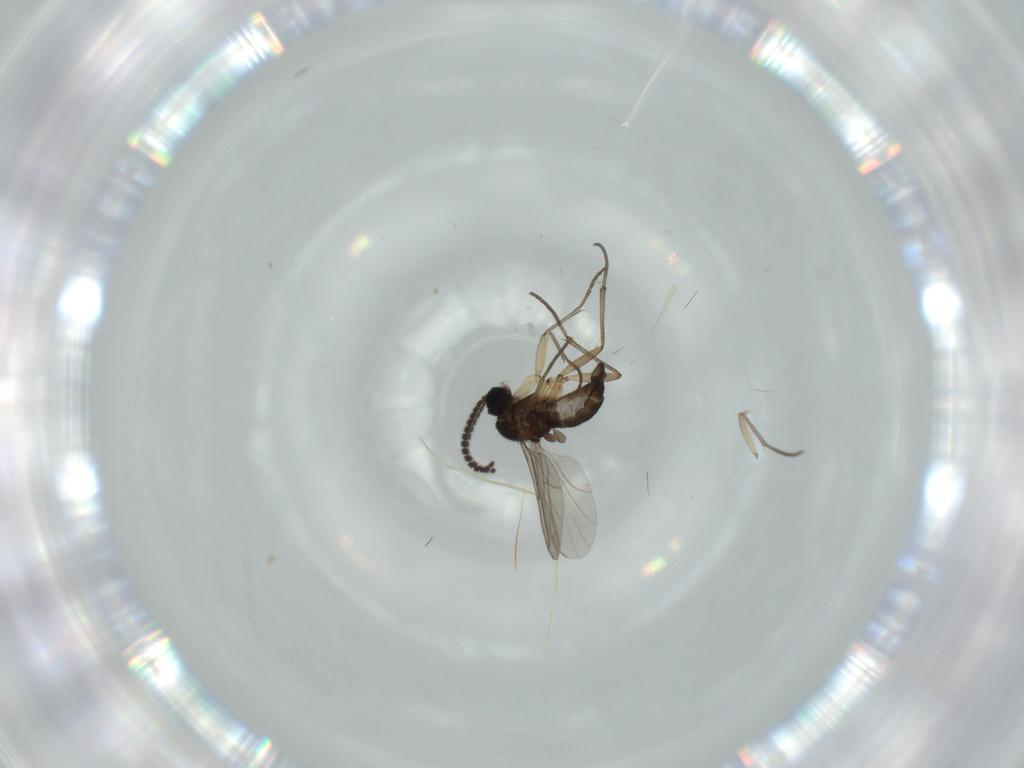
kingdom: Animalia
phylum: Arthropoda
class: Insecta
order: Diptera
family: Sciaridae
